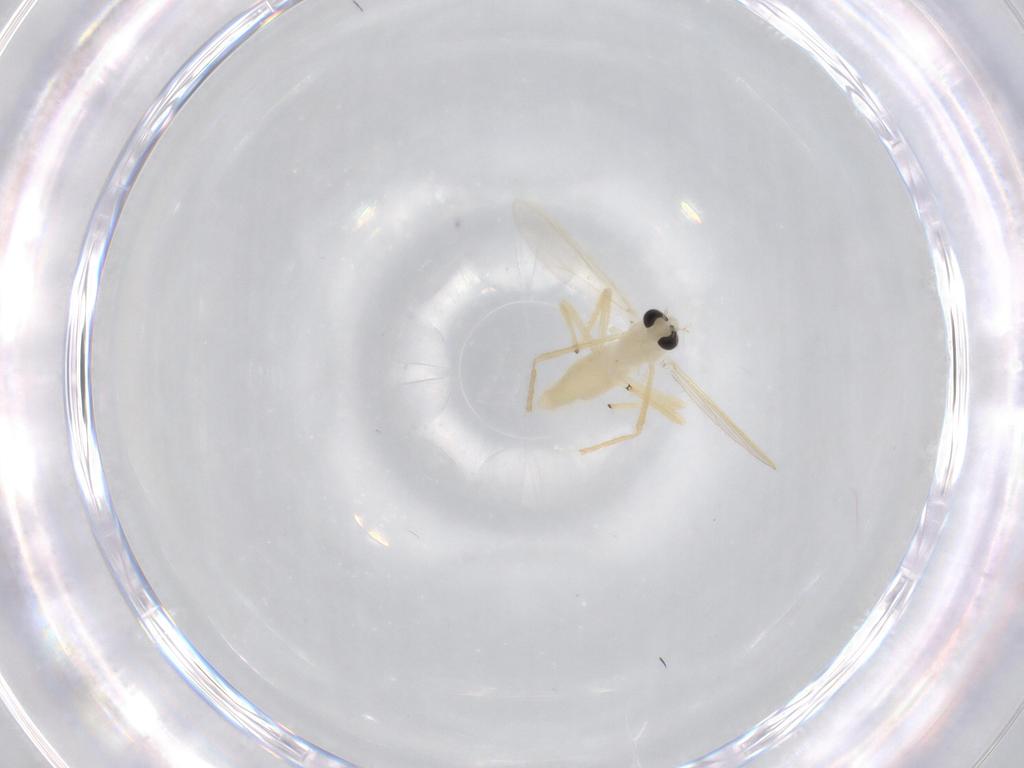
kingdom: Animalia
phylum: Arthropoda
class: Insecta
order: Diptera
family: Chironomidae
